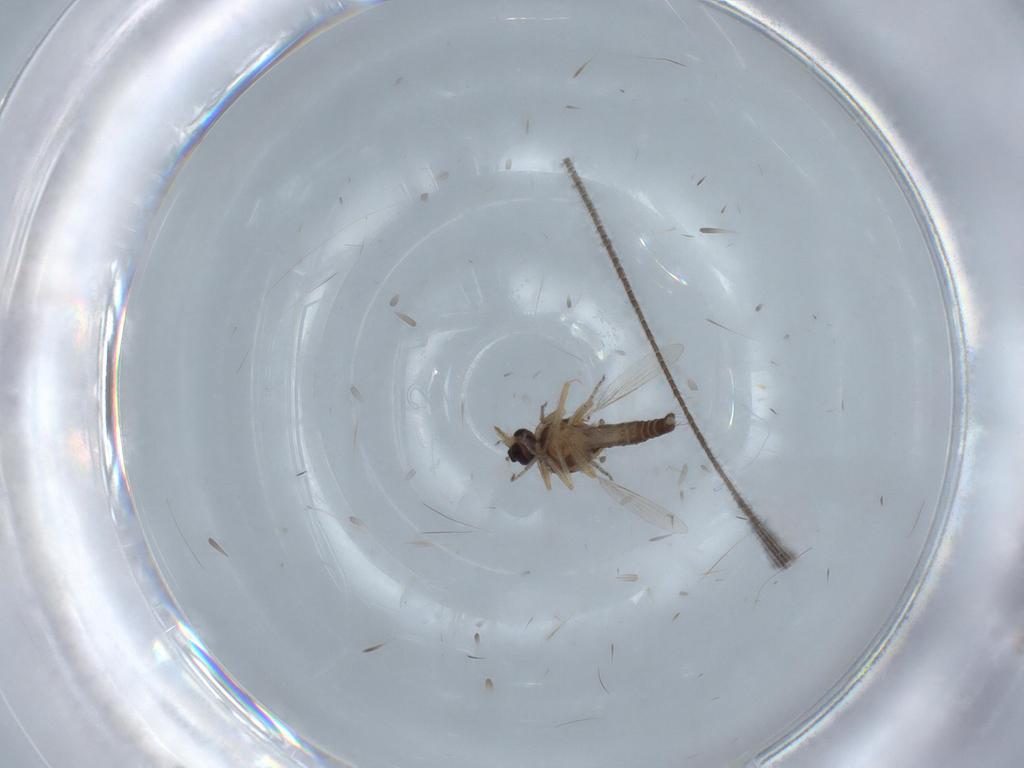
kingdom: Animalia
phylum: Arthropoda
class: Insecta
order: Diptera
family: Ceratopogonidae
